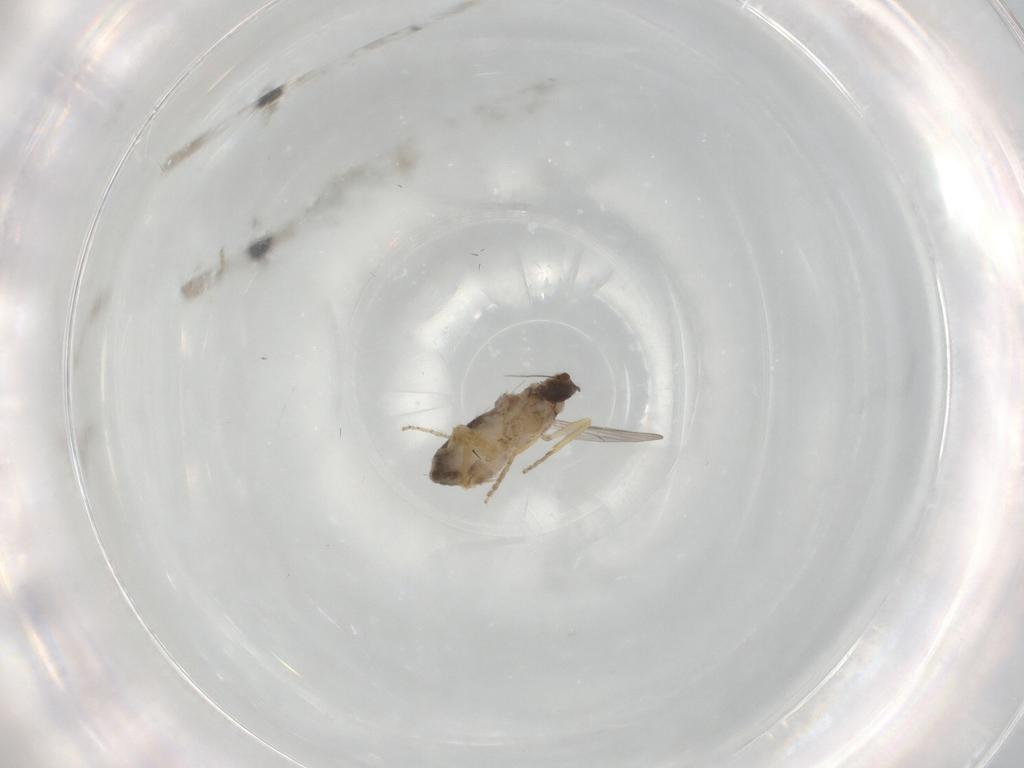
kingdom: Animalia
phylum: Arthropoda
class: Insecta
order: Diptera
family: Ceratopogonidae
